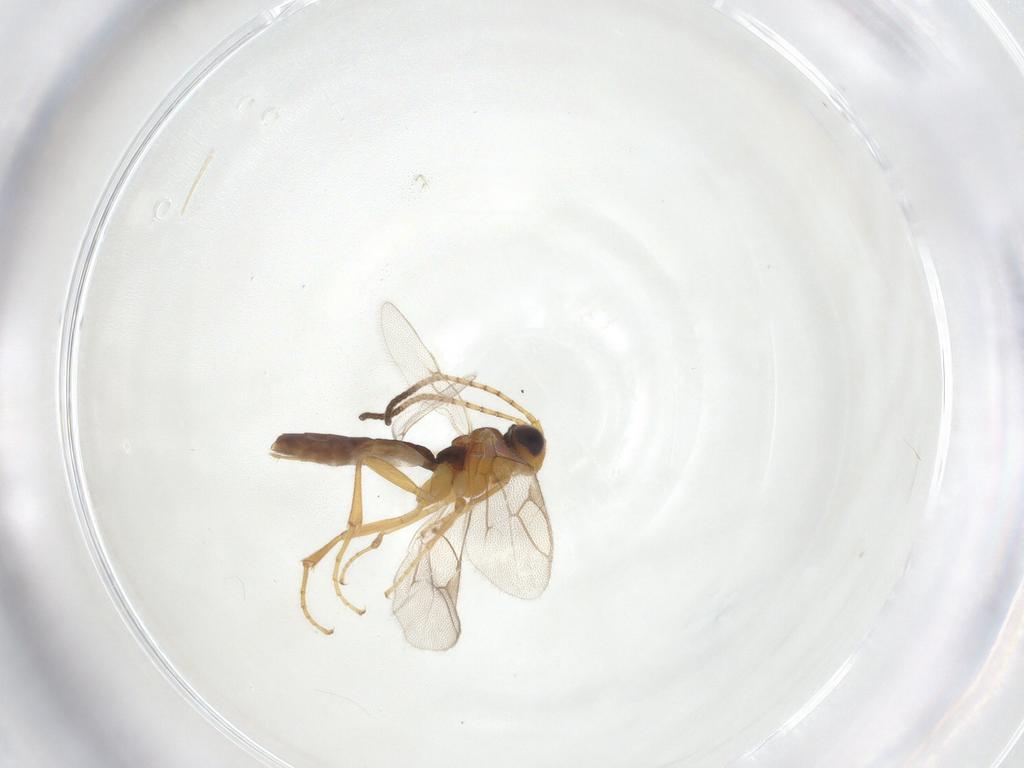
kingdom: Animalia
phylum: Arthropoda
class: Insecta
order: Hymenoptera
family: Ichneumonidae
